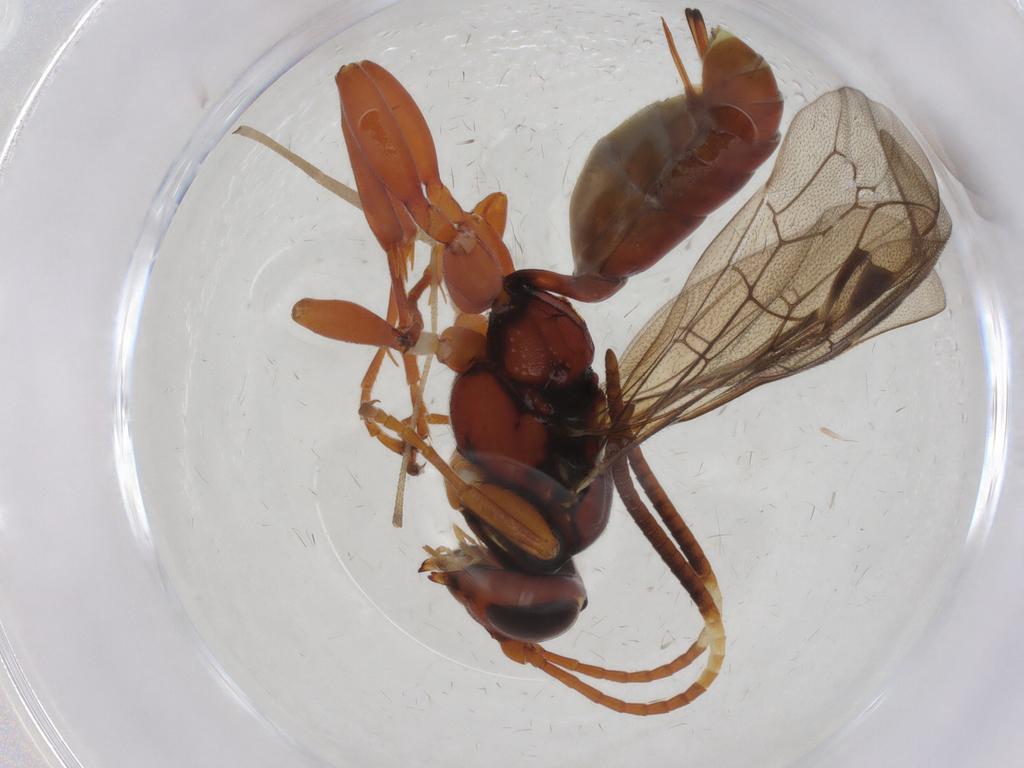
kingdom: Animalia
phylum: Arthropoda
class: Insecta
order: Hymenoptera
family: Ichneumonidae
